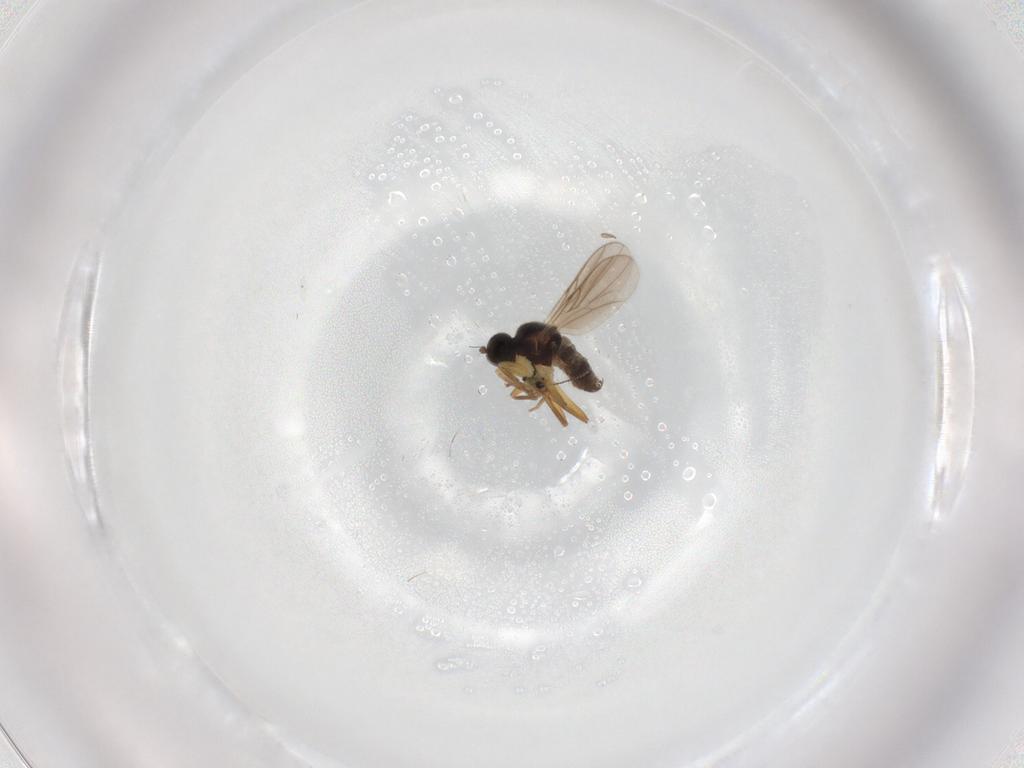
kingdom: Animalia
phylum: Arthropoda
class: Insecta
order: Diptera
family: Hybotidae
